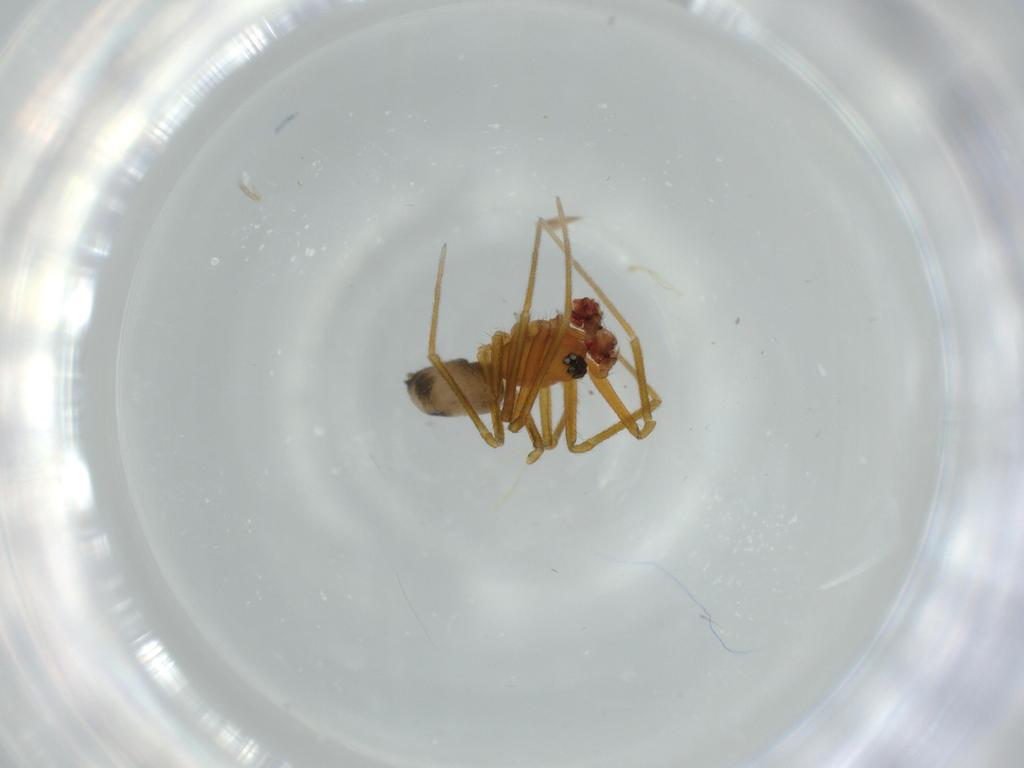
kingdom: Animalia
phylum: Arthropoda
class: Arachnida
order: Araneae
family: Linyphiidae
